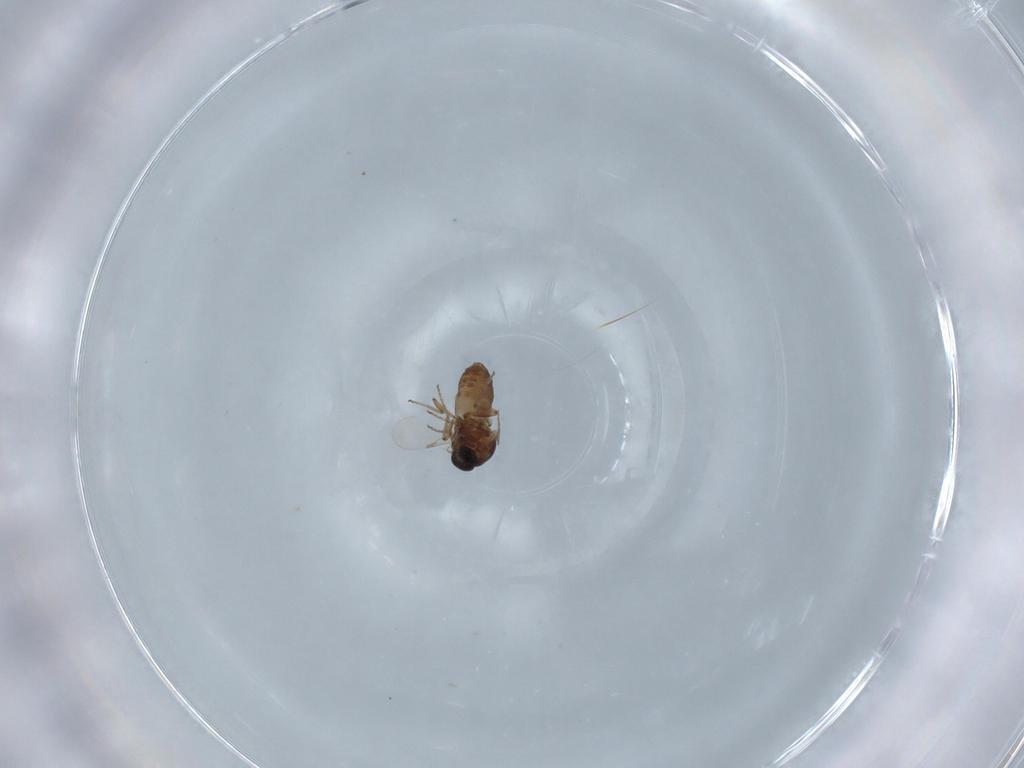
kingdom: Animalia
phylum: Arthropoda
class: Insecta
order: Diptera
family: Ceratopogonidae
